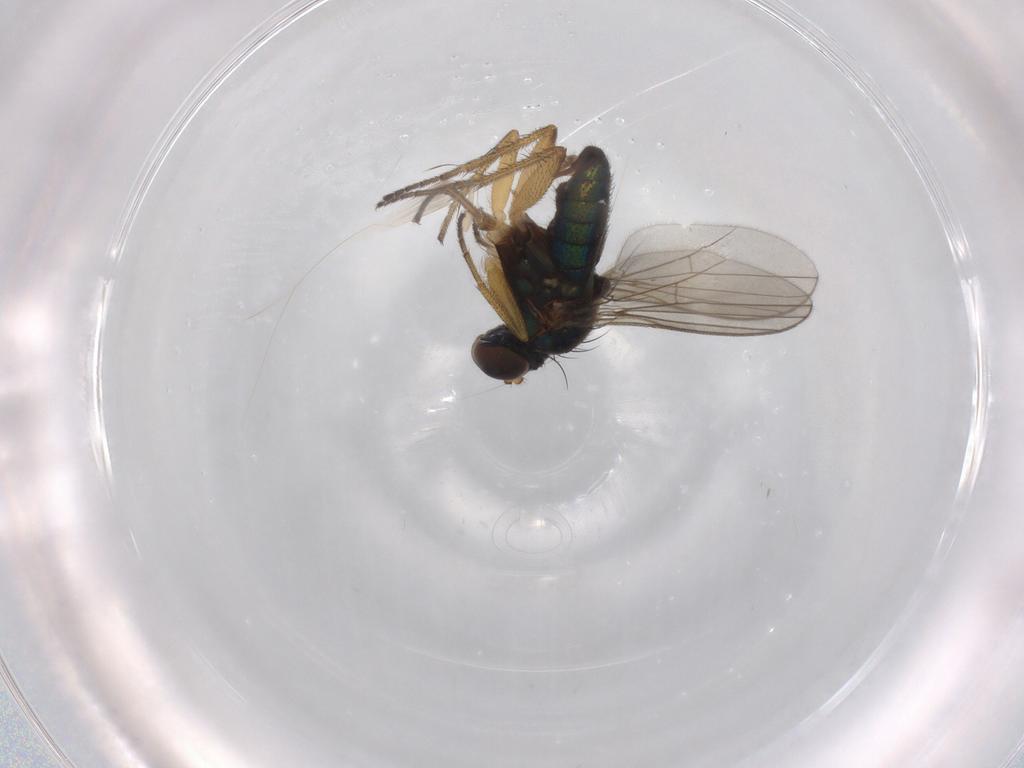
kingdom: Animalia
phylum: Arthropoda
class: Insecta
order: Diptera
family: Dolichopodidae
